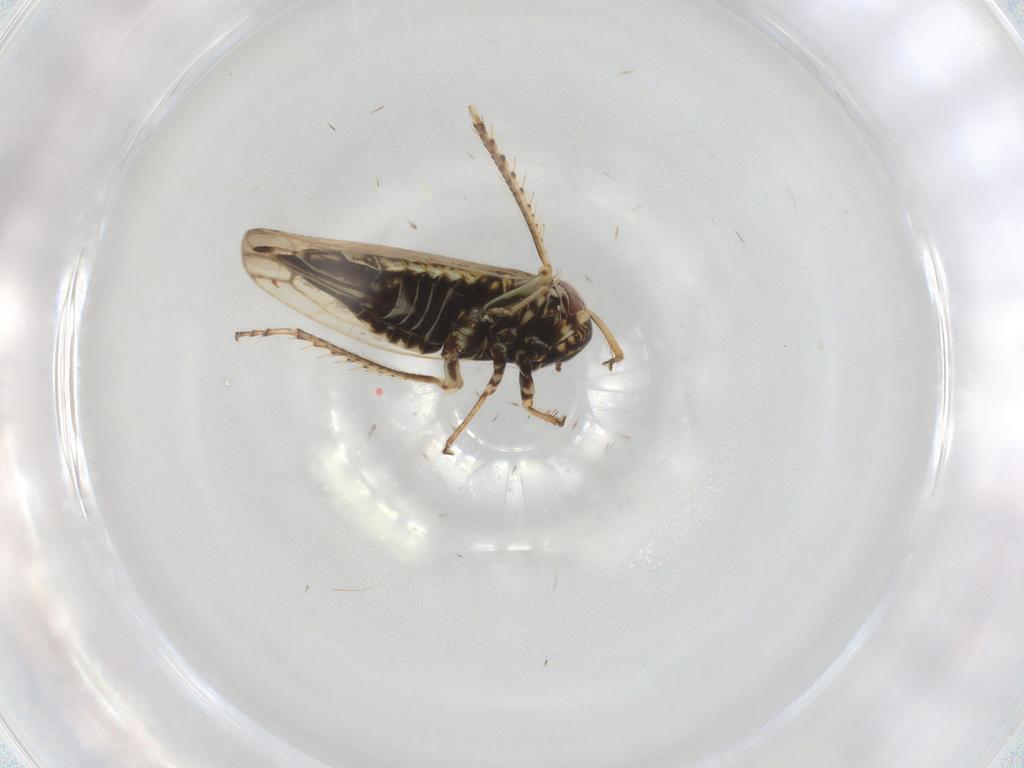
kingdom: Animalia
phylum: Arthropoda
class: Insecta
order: Hemiptera
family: Cicadellidae
